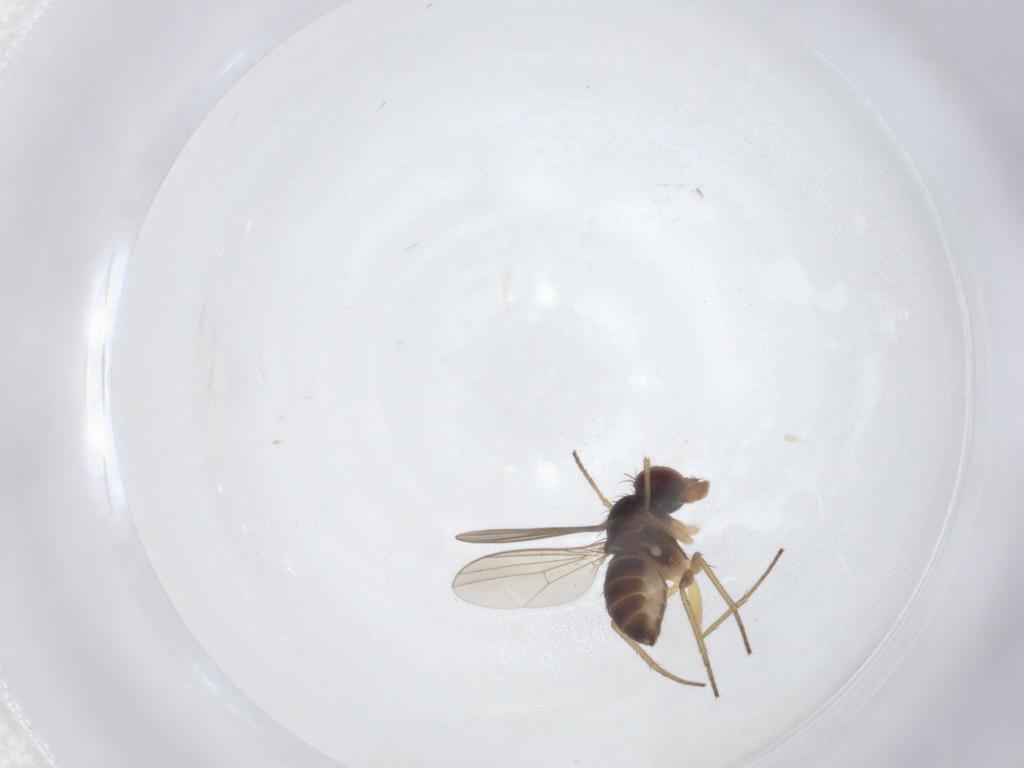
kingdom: Animalia
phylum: Arthropoda
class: Insecta
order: Diptera
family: Dolichopodidae
